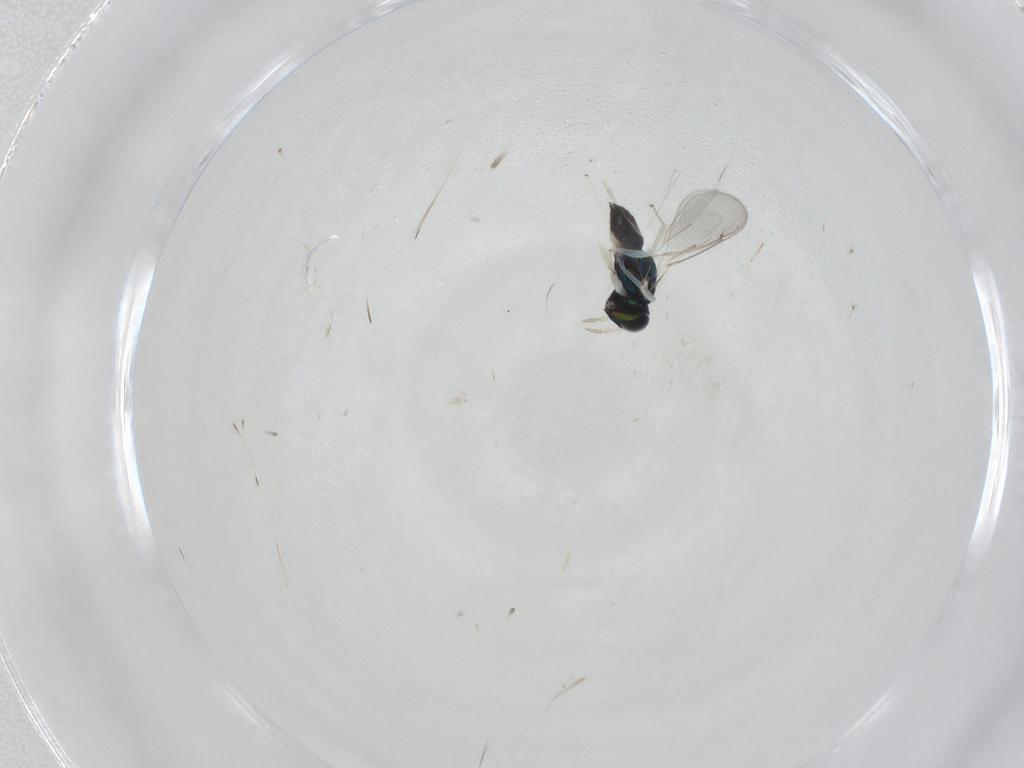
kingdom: Animalia
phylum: Arthropoda
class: Insecta
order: Hymenoptera
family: Eulophidae
